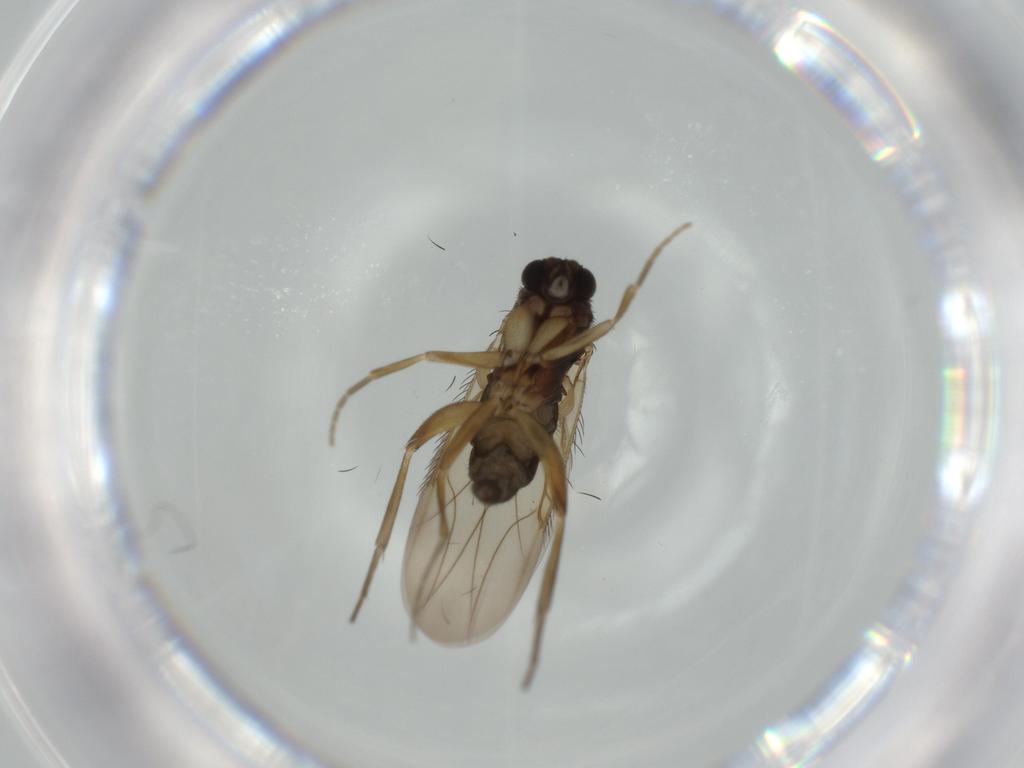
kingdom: Animalia
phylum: Arthropoda
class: Insecta
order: Diptera
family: Phoridae
